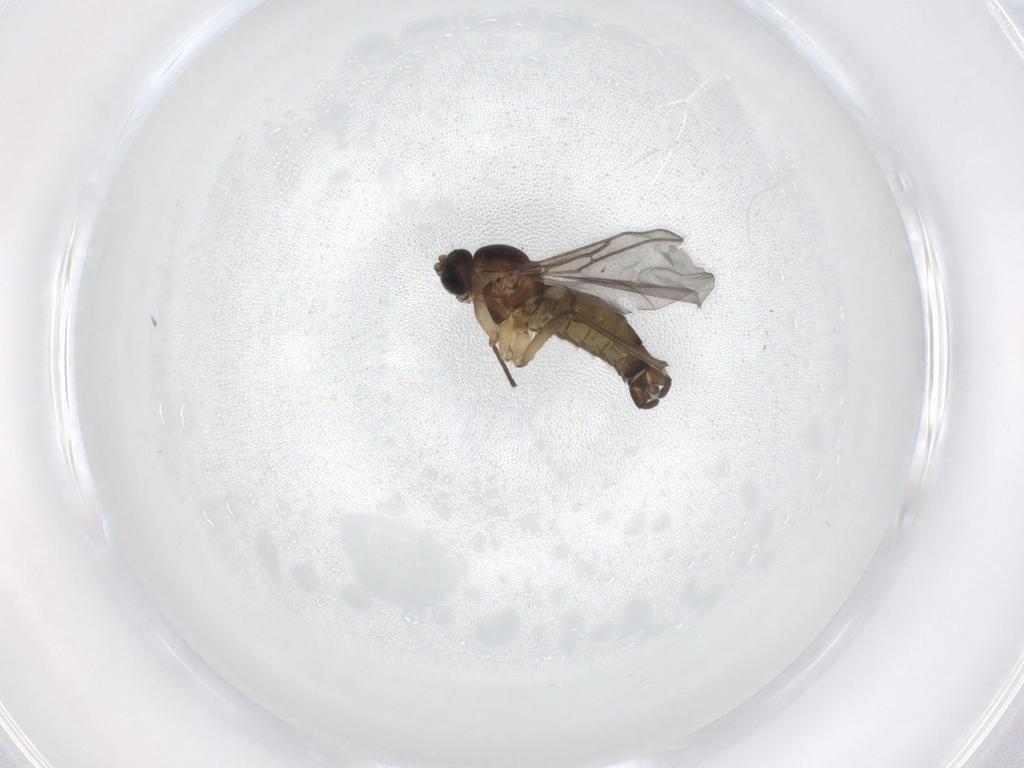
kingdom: Animalia
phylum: Arthropoda
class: Insecta
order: Diptera
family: Sciaridae
